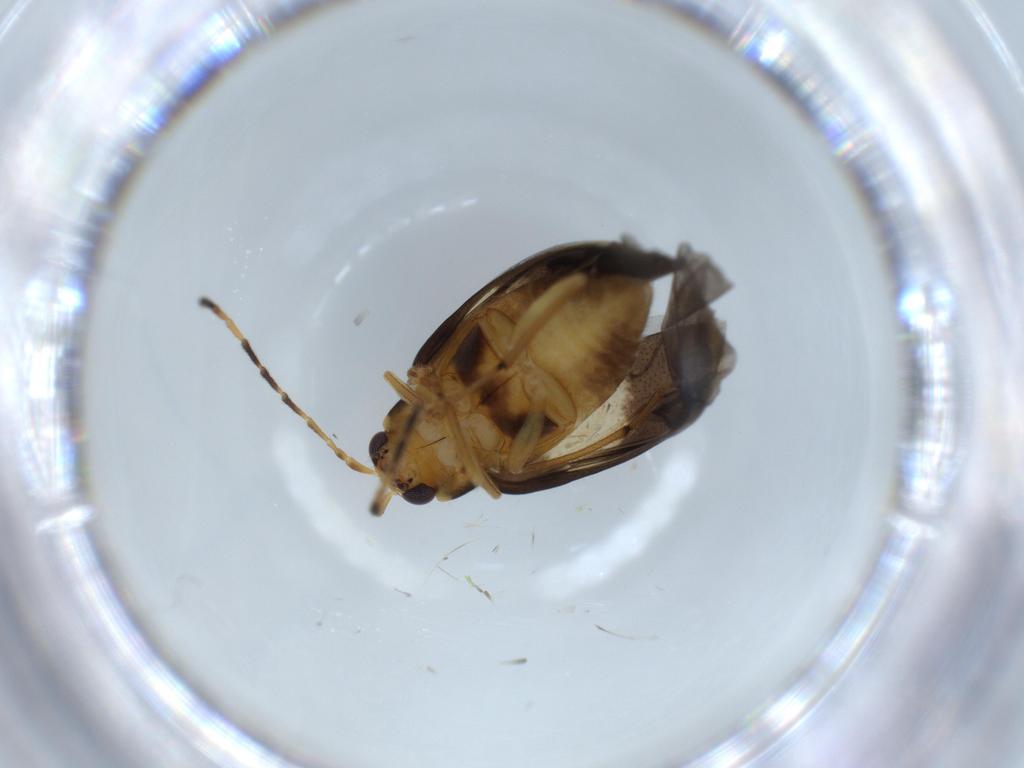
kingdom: Animalia
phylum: Arthropoda
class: Insecta
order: Coleoptera
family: Chrysomelidae
